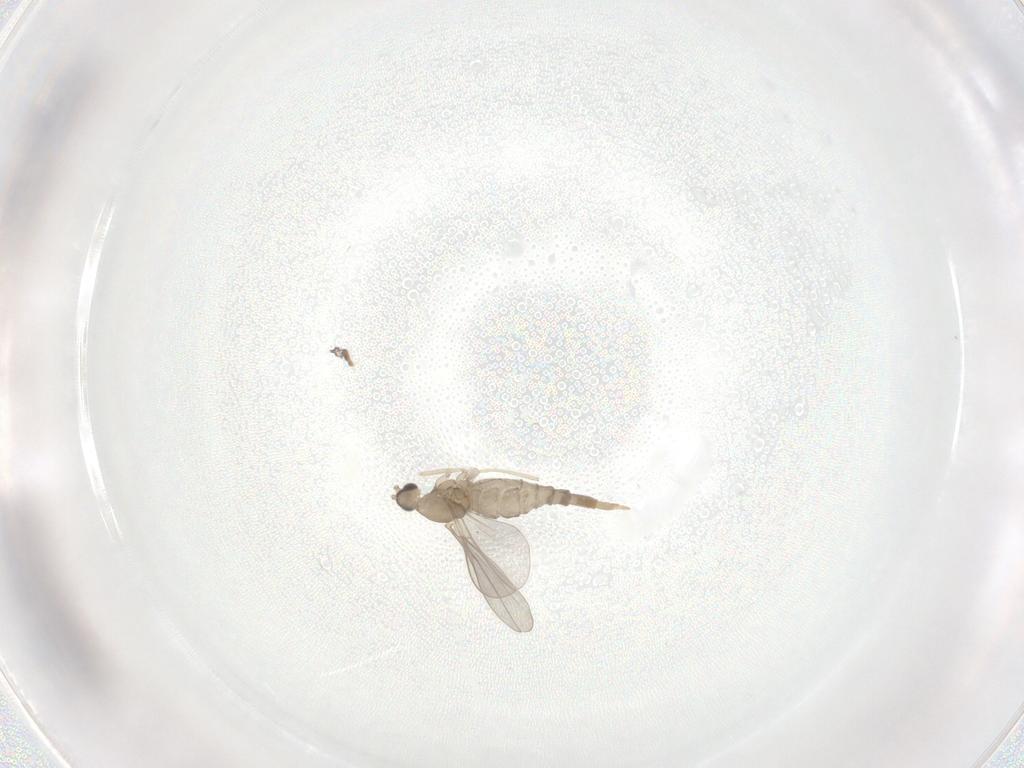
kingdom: Animalia
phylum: Arthropoda
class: Insecta
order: Diptera
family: Cecidomyiidae
